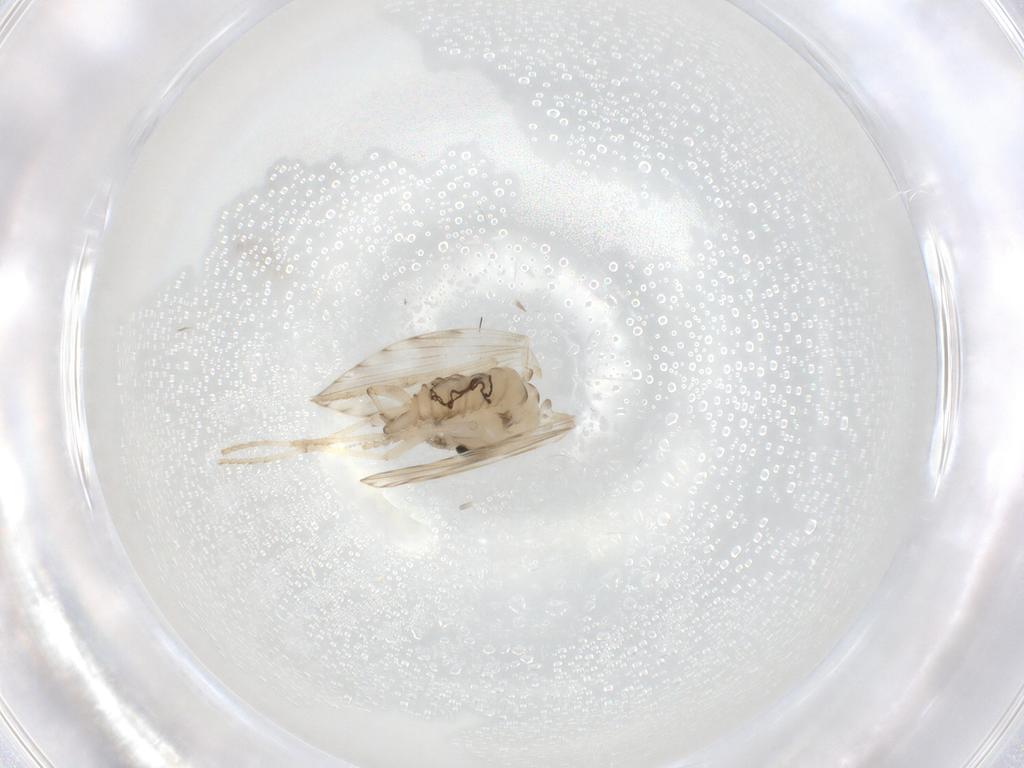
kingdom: Animalia
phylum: Arthropoda
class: Insecta
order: Diptera
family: Psychodidae
